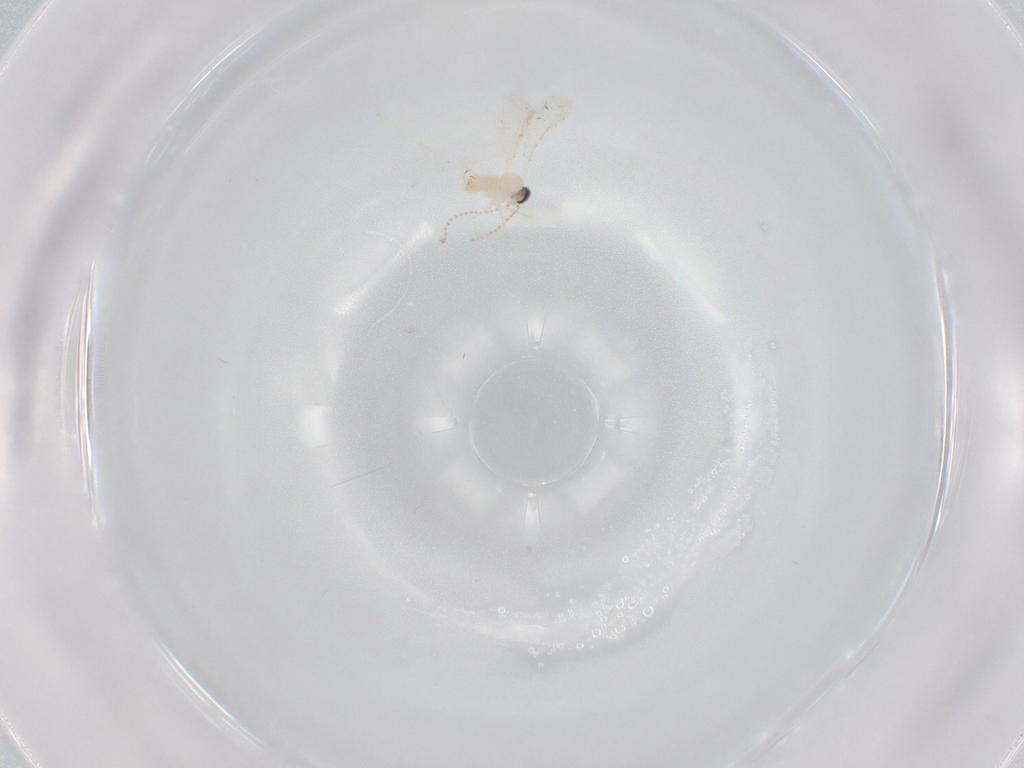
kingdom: Animalia
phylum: Arthropoda
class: Insecta
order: Diptera
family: Cecidomyiidae
